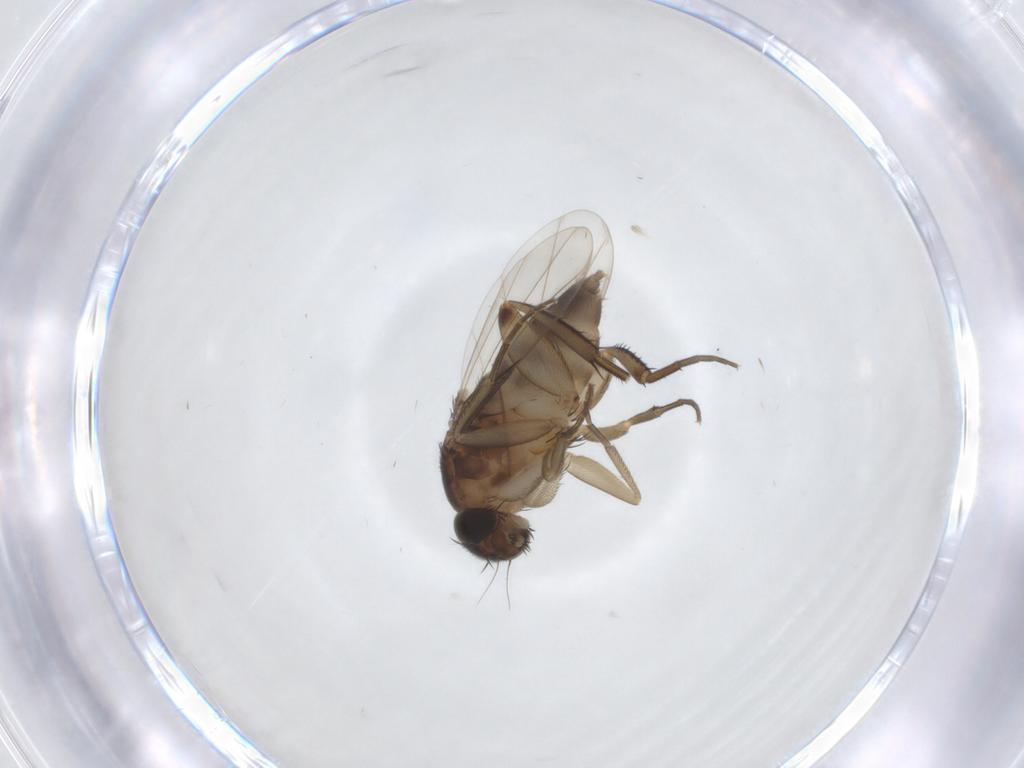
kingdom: Animalia
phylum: Arthropoda
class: Insecta
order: Diptera
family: Phoridae
